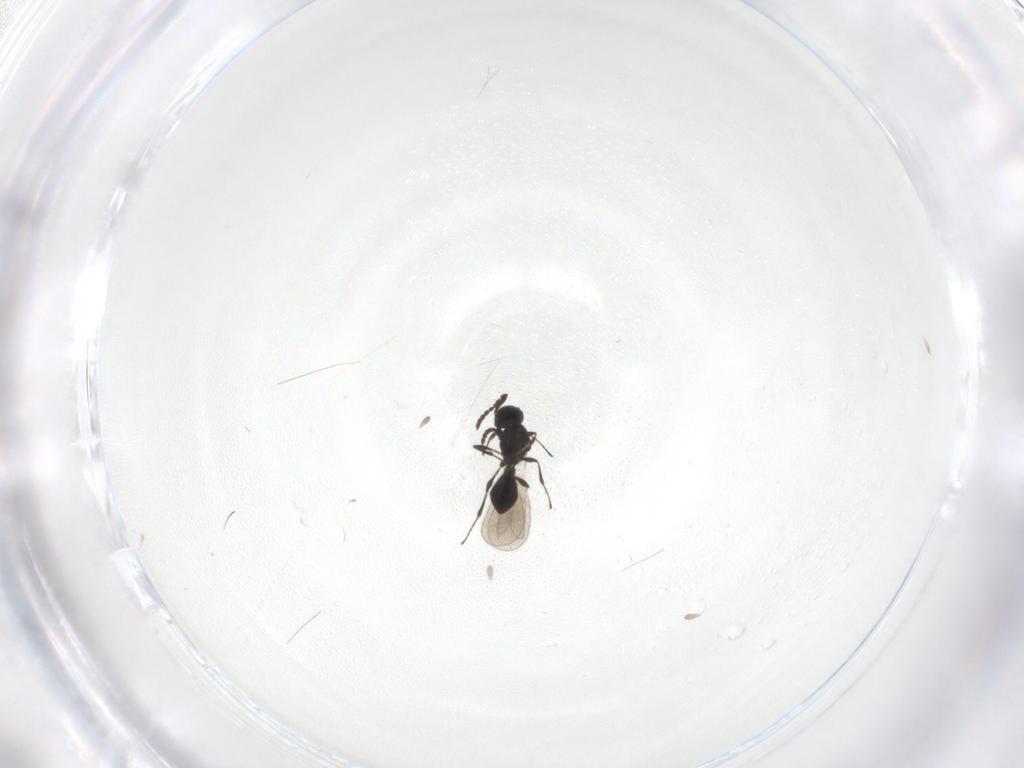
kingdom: Animalia
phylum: Arthropoda
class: Insecta
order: Hymenoptera
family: Platygastridae
